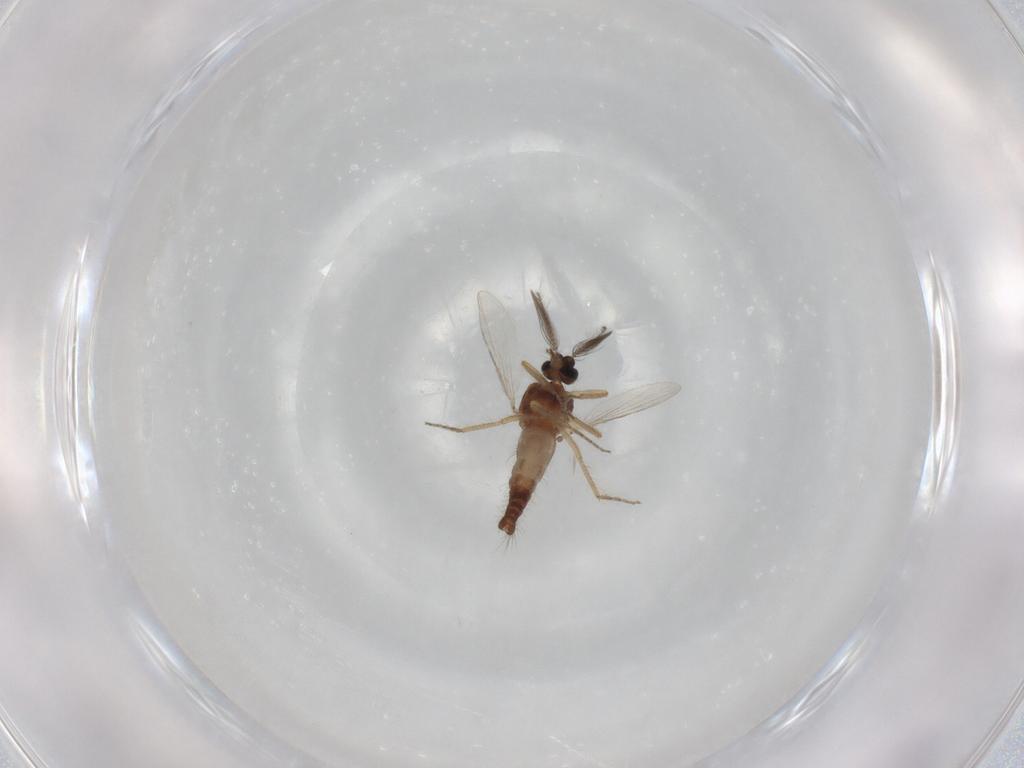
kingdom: Animalia
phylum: Arthropoda
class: Insecta
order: Diptera
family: Ceratopogonidae
